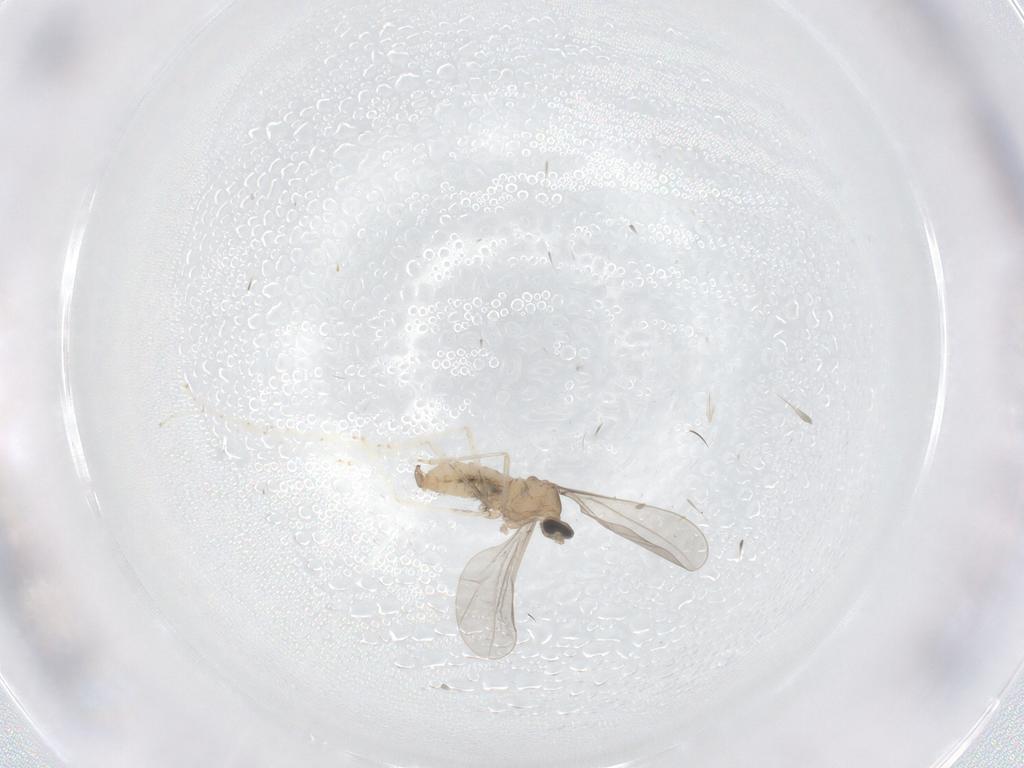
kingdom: Animalia
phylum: Arthropoda
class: Insecta
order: Diptera
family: Cecidomyiidae
